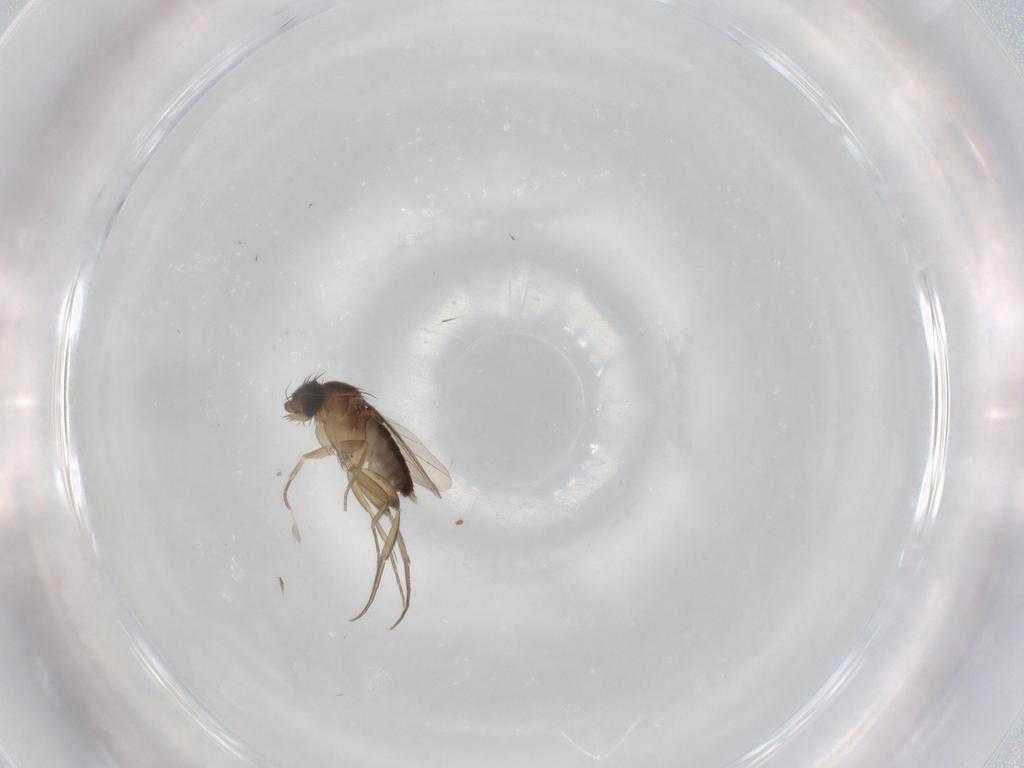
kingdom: Animalia
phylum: Arthropoda
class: Insecta
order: Diptera
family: Phoridae
